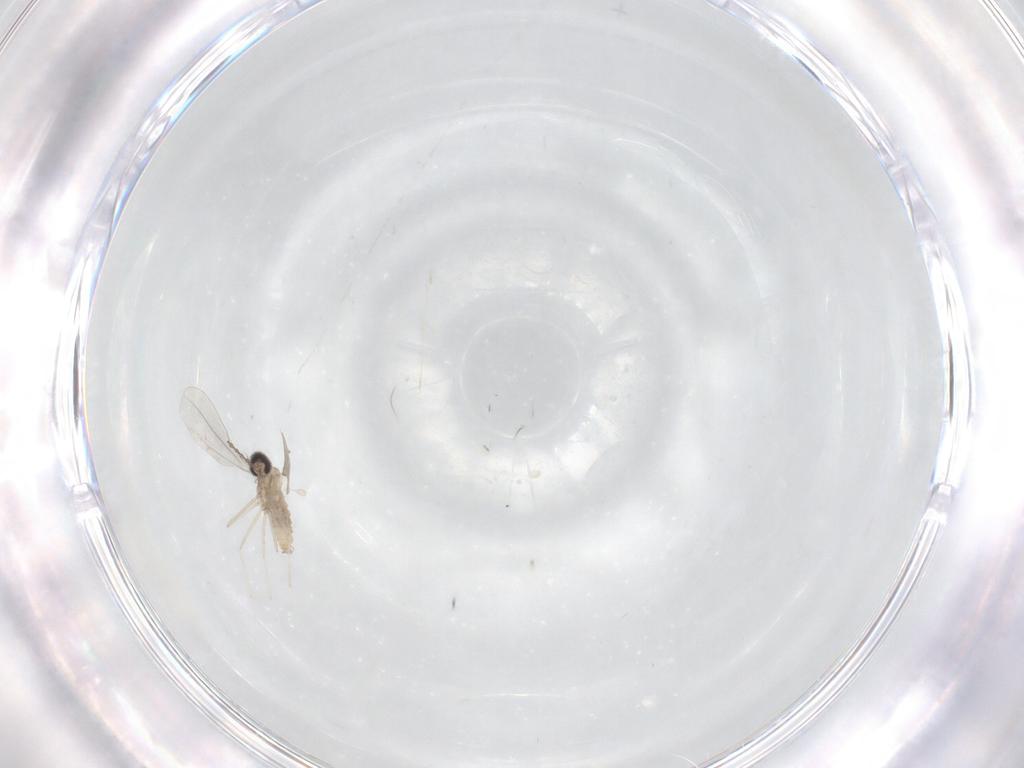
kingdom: Animalia
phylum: Arthropoda
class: Insecta
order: Diptera
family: Cecidomyiidae
